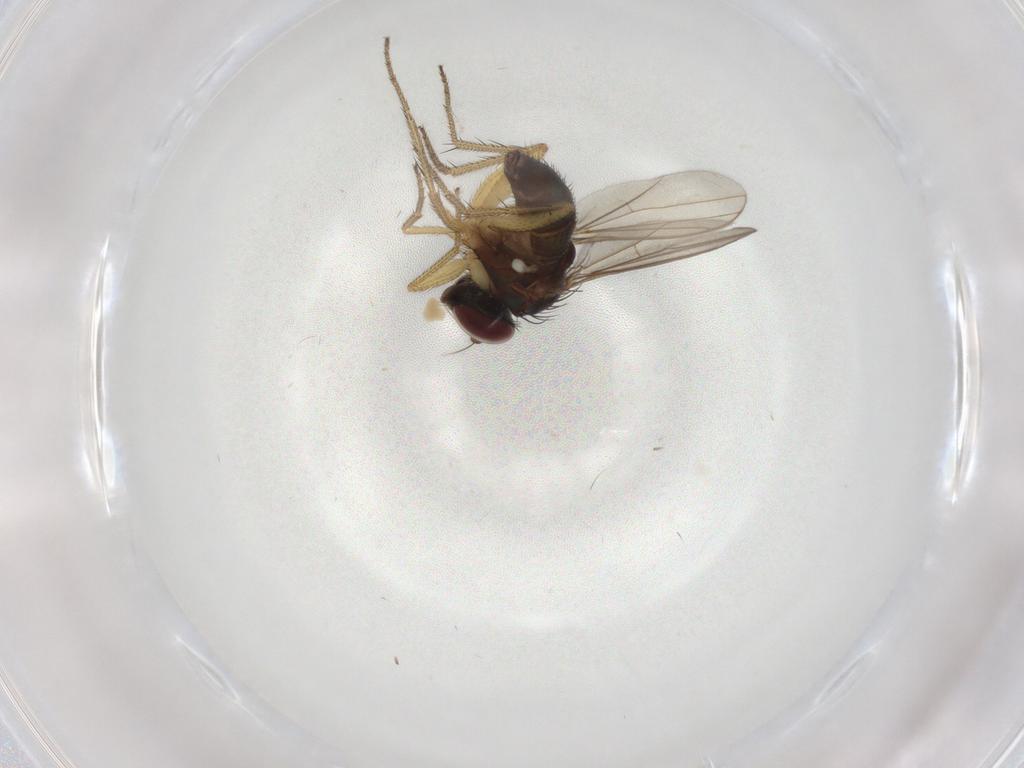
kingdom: Animalia
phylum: Arthropoda
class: Insecta
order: Diptera
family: Dolichopodidae
